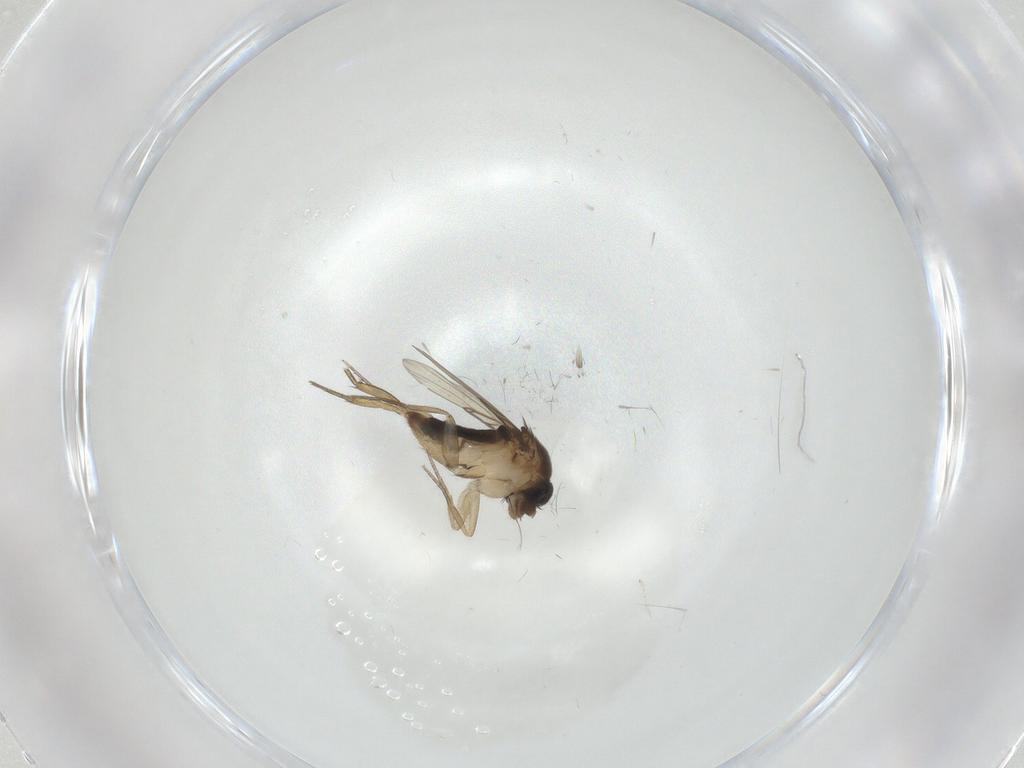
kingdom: Animalia
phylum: Arthropoda
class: Insecta
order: Diptera
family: Phoridae
